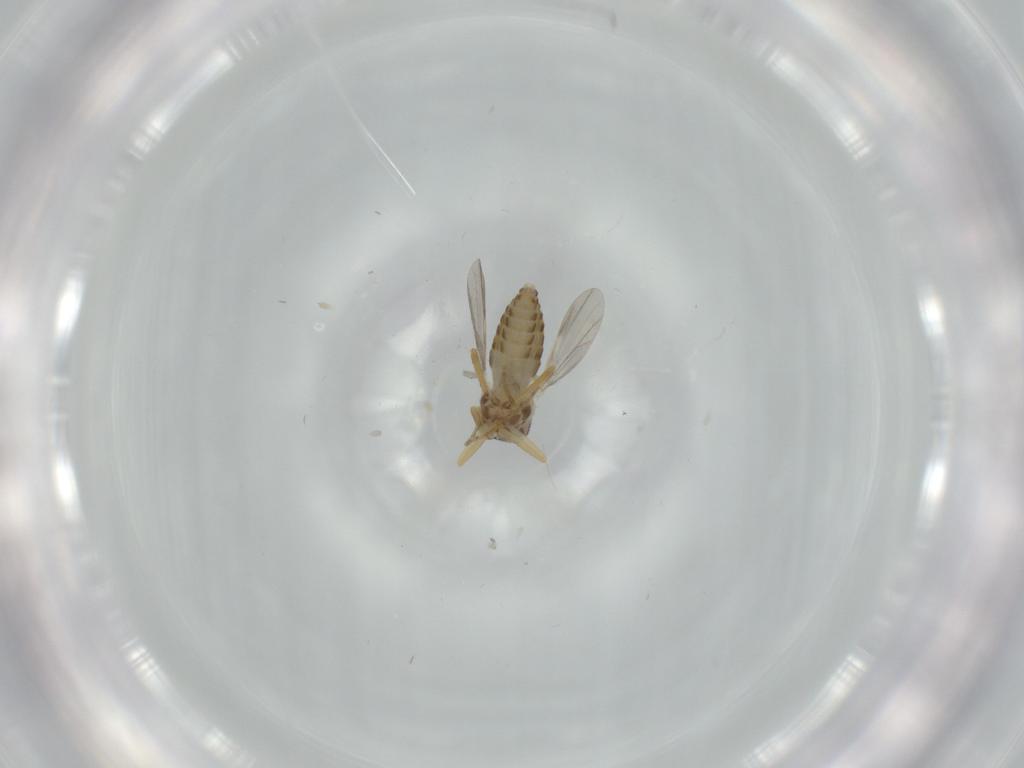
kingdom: Animalia
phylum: Arthropoda
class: Insecta
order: Diptera
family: Ceratopogonidae
